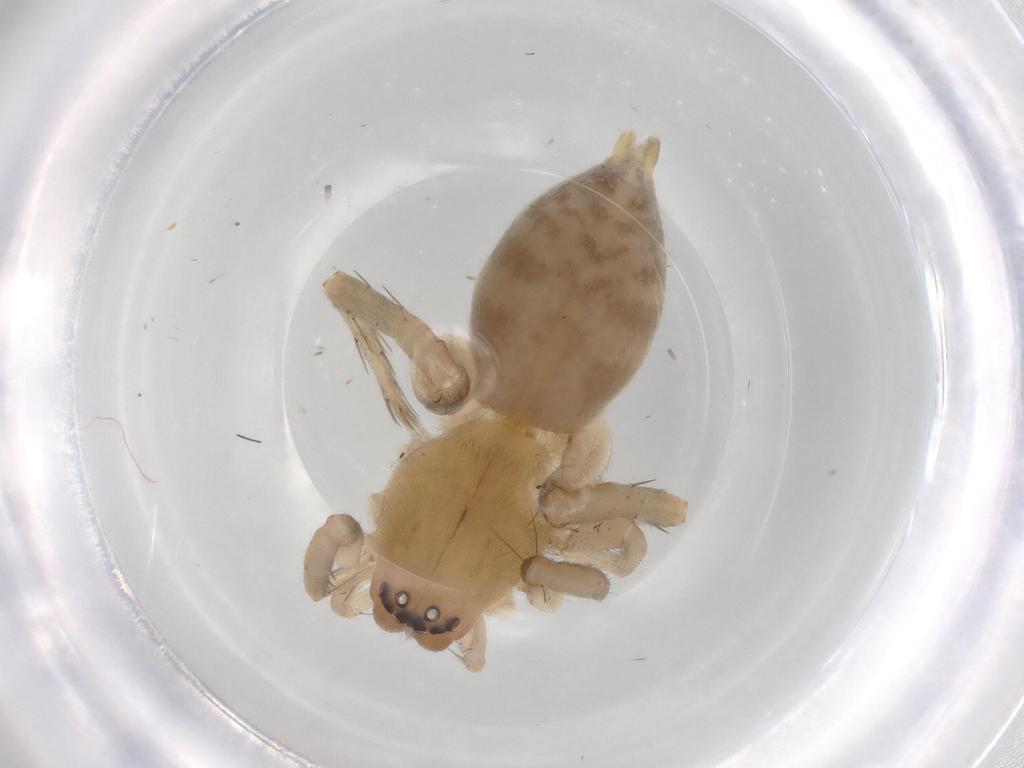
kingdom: Animalia
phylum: Arthropoda
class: Arachnida
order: Araneae
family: Clubionidae
